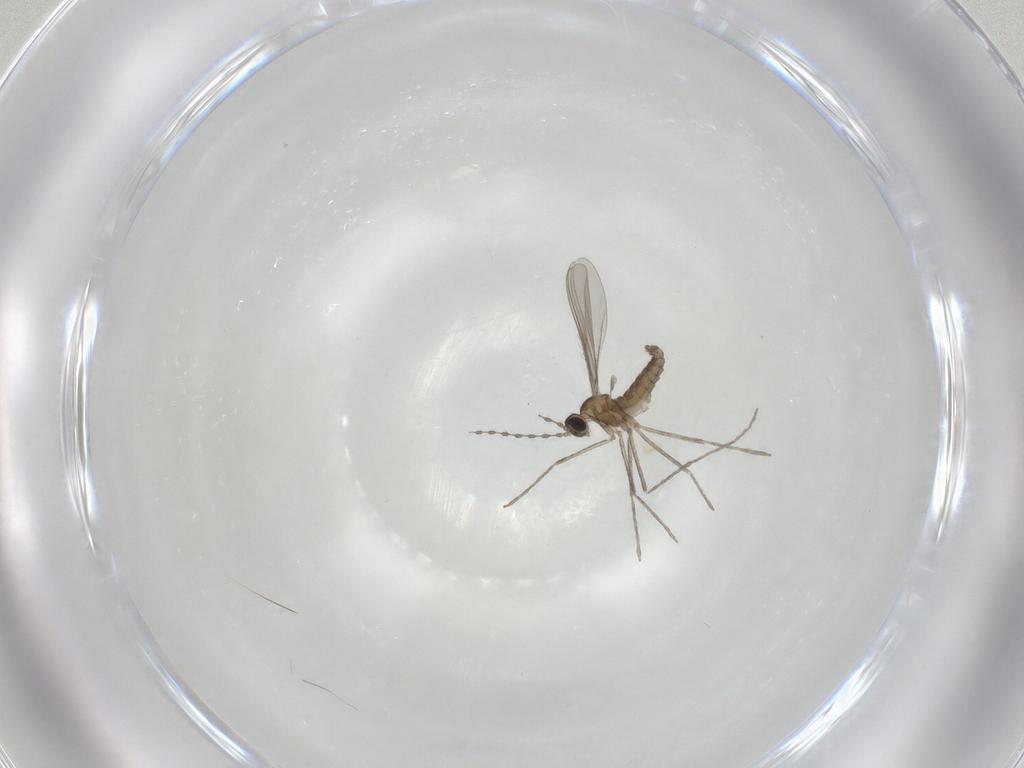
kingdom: Animalia
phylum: Arthropoda
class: Insecta
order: Diptera
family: Cecidomyiidae
